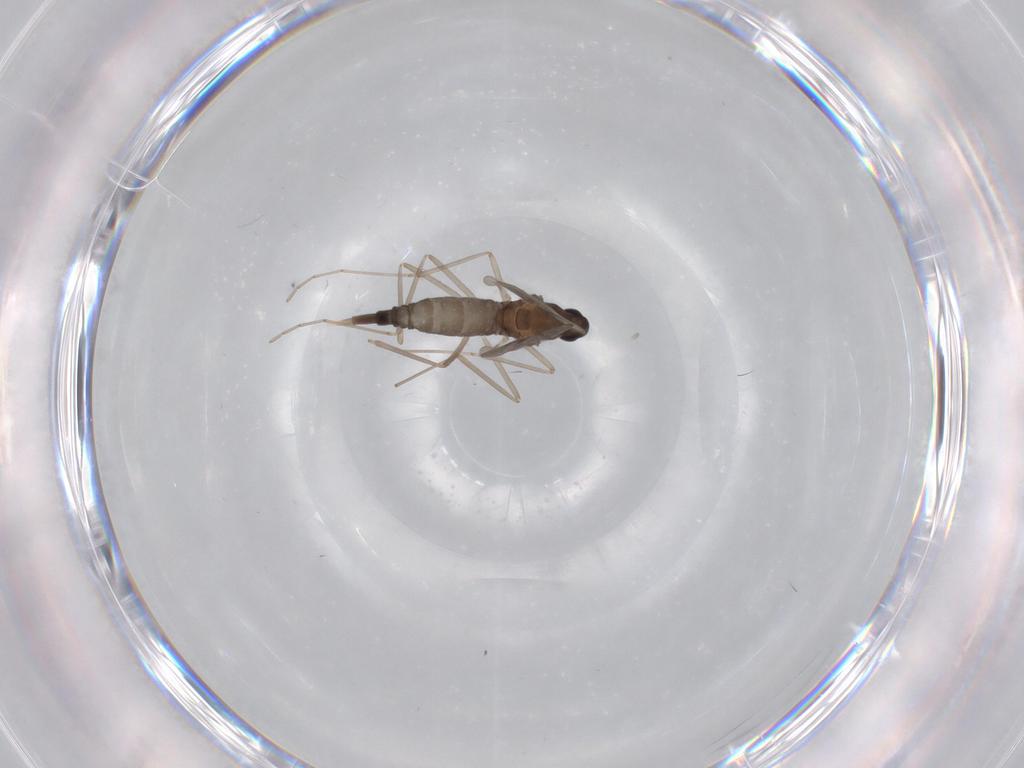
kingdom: Animalia
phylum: Arthropoda
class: Insecta
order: Diptera
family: Cecidomyiidae
